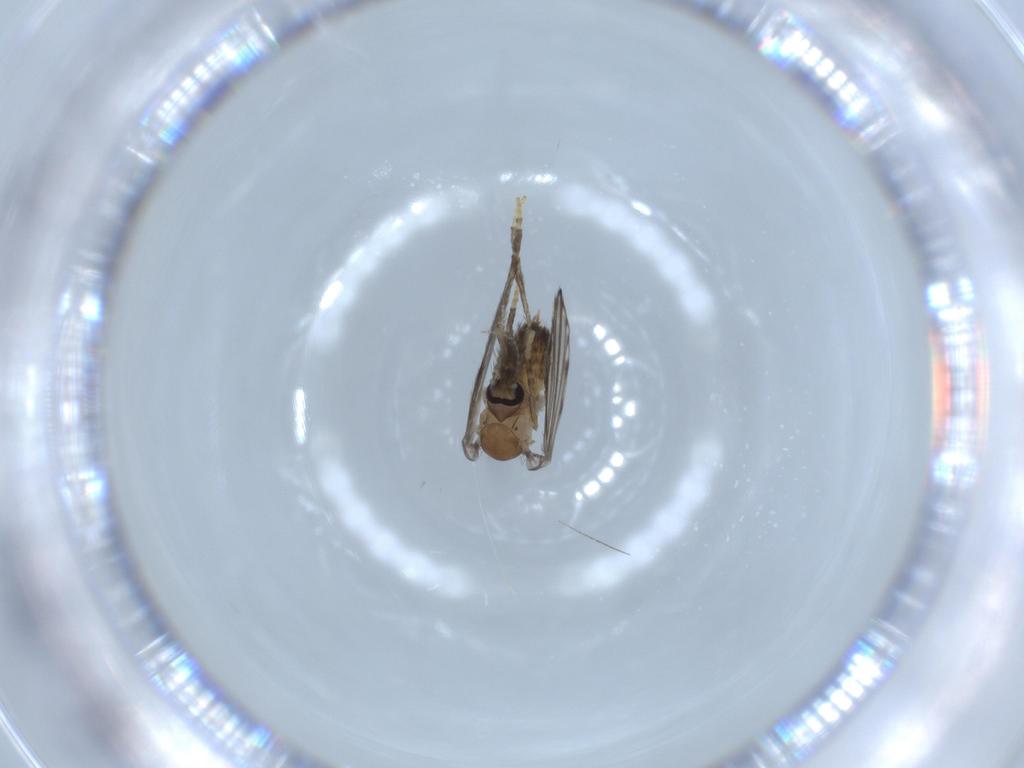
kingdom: Animalia
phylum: Arthropoda
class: Insecta
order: Diptera
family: Psychodidae
